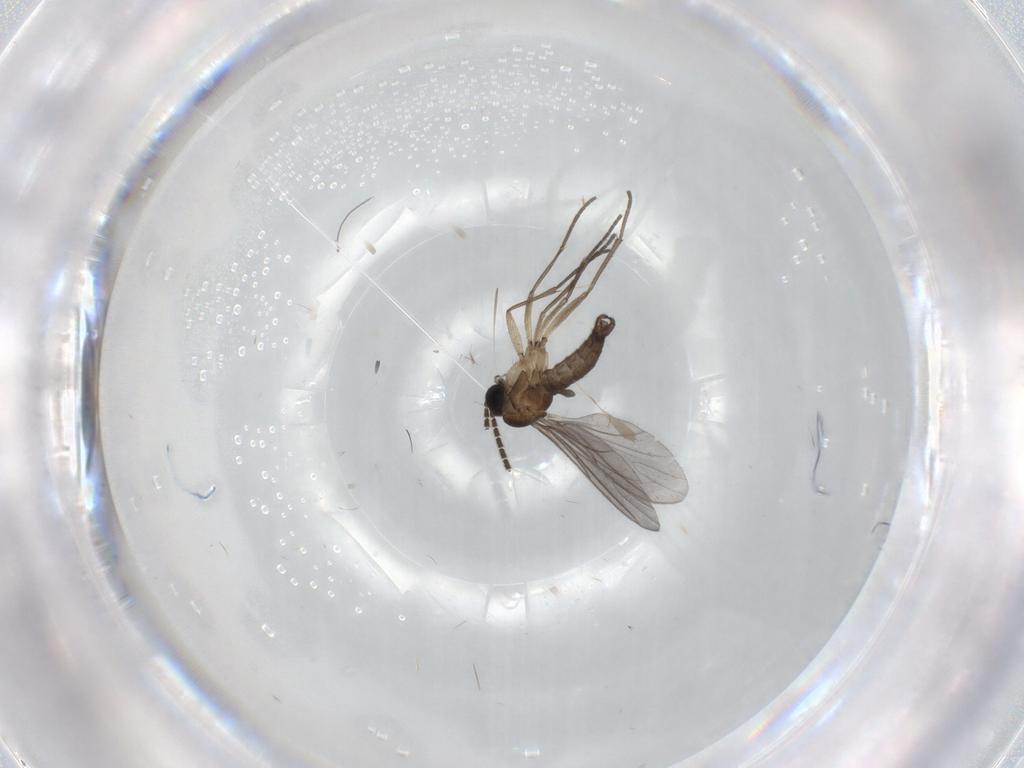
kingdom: Animalia
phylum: Arthropoda
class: Insecta
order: Diptera
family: Sciaridae
